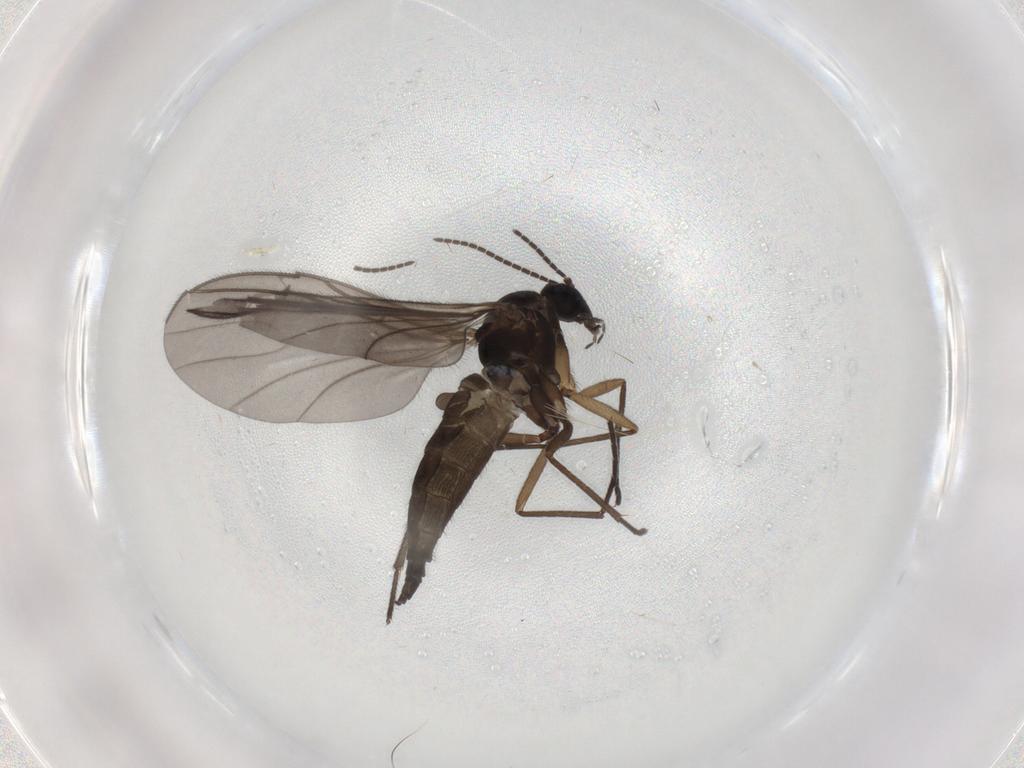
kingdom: Animalia
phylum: Arthropoda
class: Insecta
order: Diptera
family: Sciaridae
